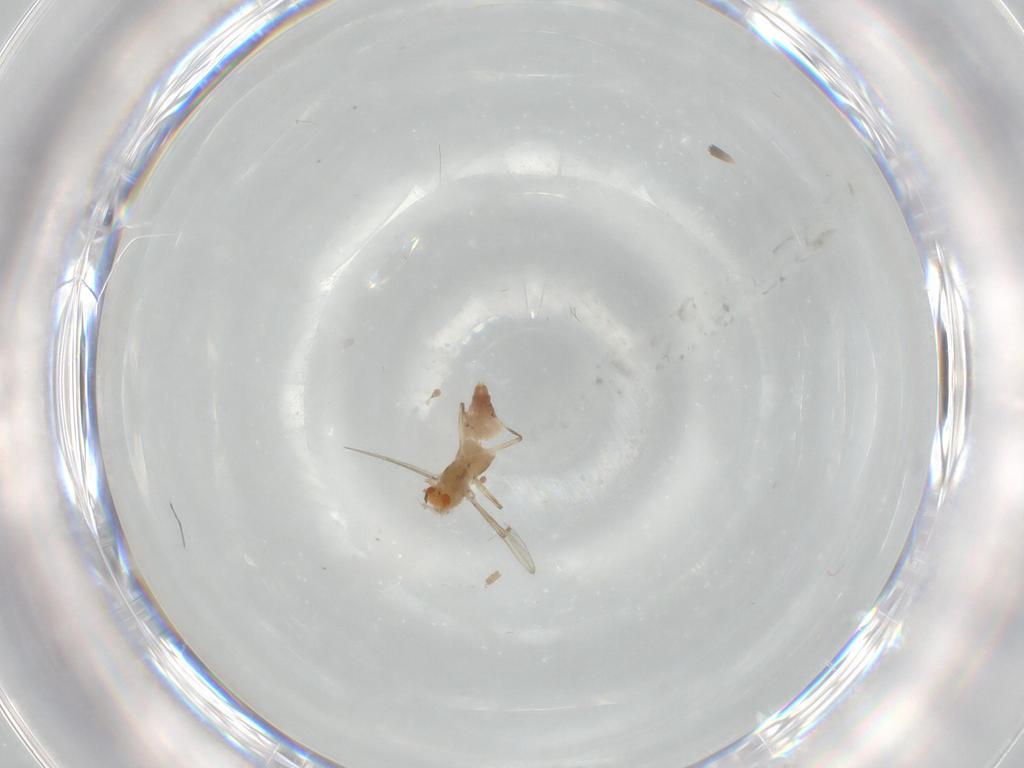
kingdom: Animalia
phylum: Arthropoda
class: Insecta
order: Diptera
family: Chironomidae
